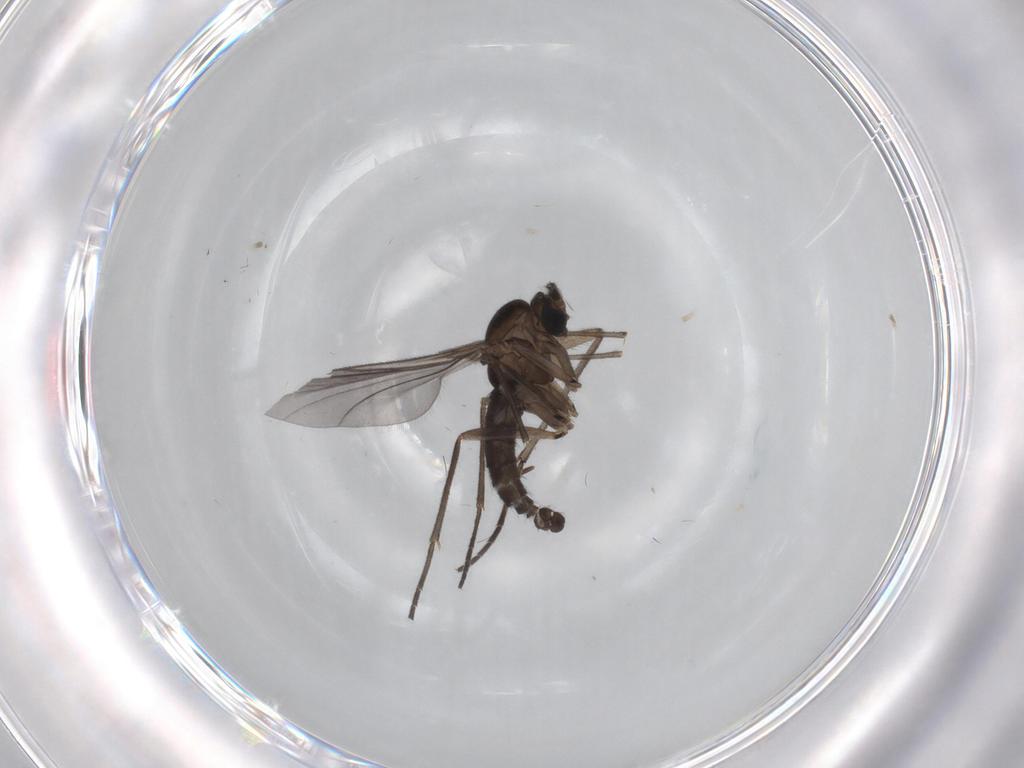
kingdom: Animalia
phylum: Arthropoda
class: Insecta
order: Diptera
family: Sciaridae
